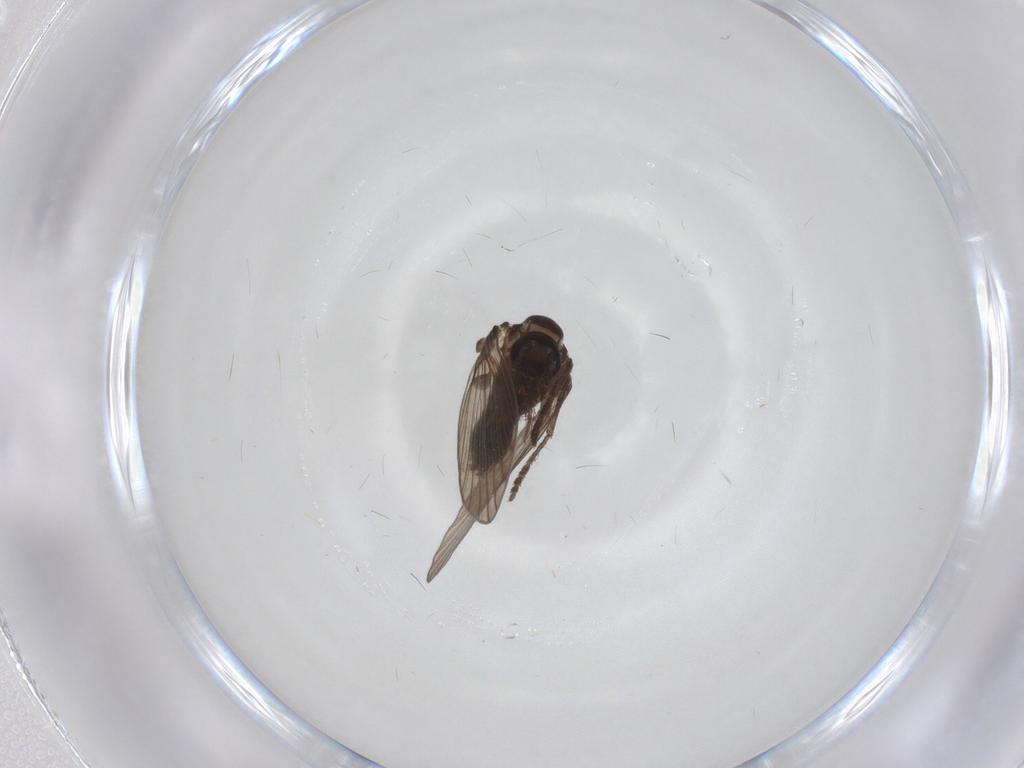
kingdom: Animalia
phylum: Arthropoda
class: Insecta
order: Diptera
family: Psychodidae
